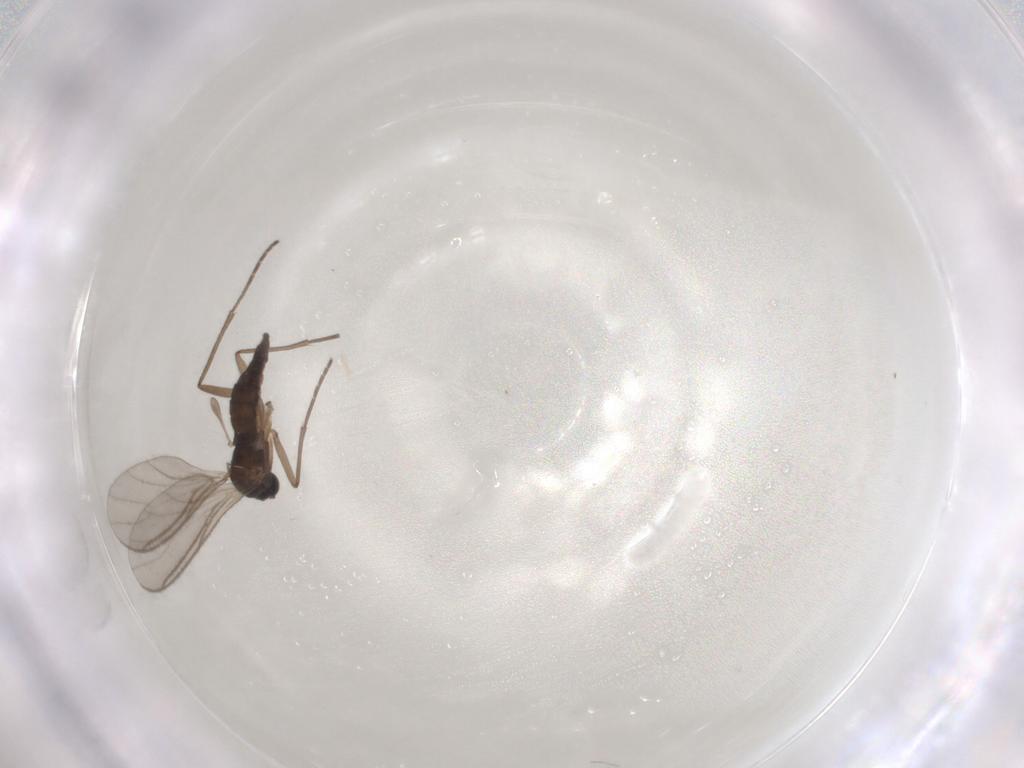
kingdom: Animalia
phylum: Arthropoda
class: Insecta
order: Diptera
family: Sciaridae
